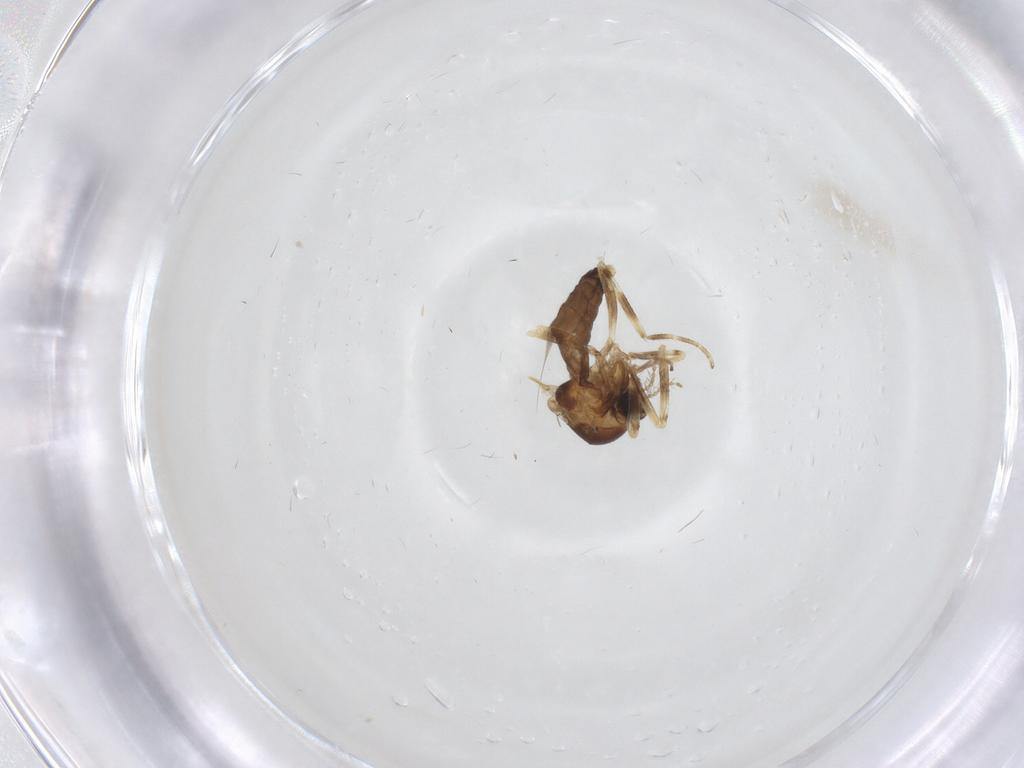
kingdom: Animalia
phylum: Arthropoda
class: Insecta
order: Diptera
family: Ceratopogonidae
